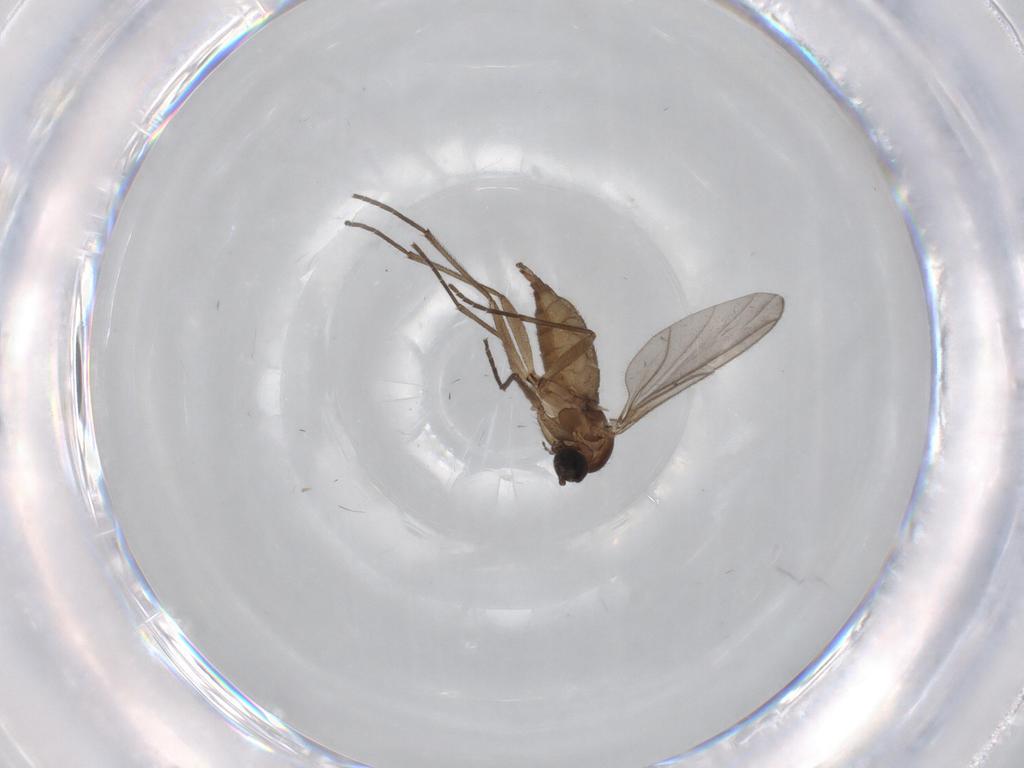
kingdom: Animalia
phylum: Arthropoda
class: Insecta
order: Diptera
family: Sciaridae
